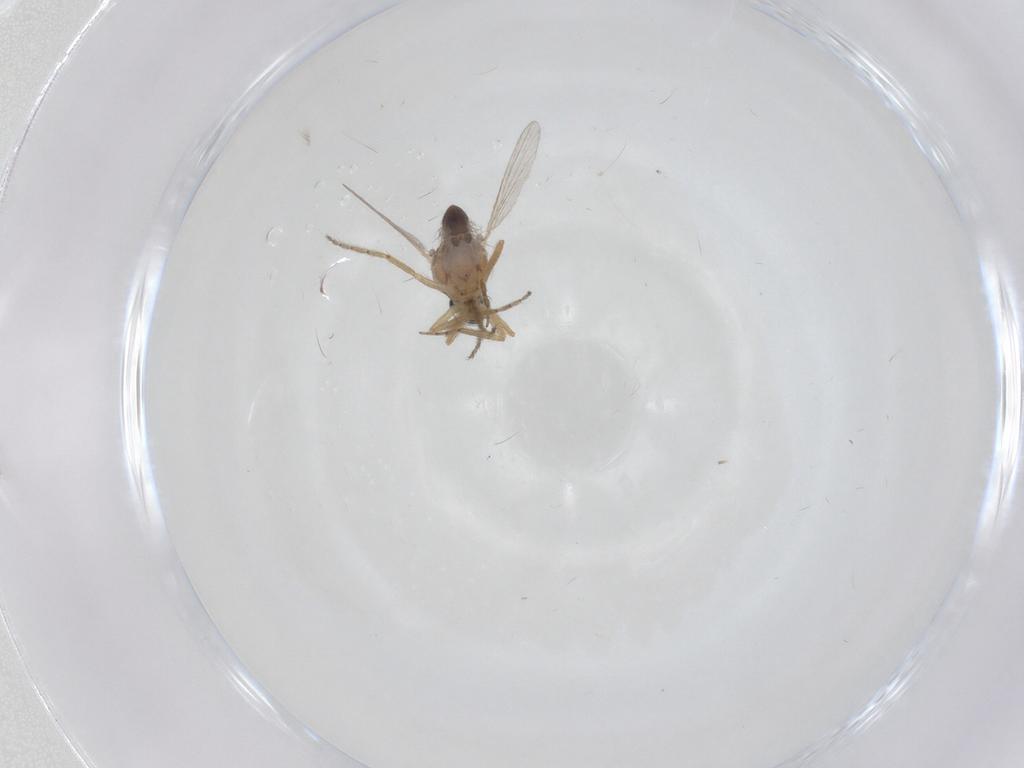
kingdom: Animalia
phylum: Arthropoda
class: Insecta
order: Diptera
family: Ceratopogonidae
